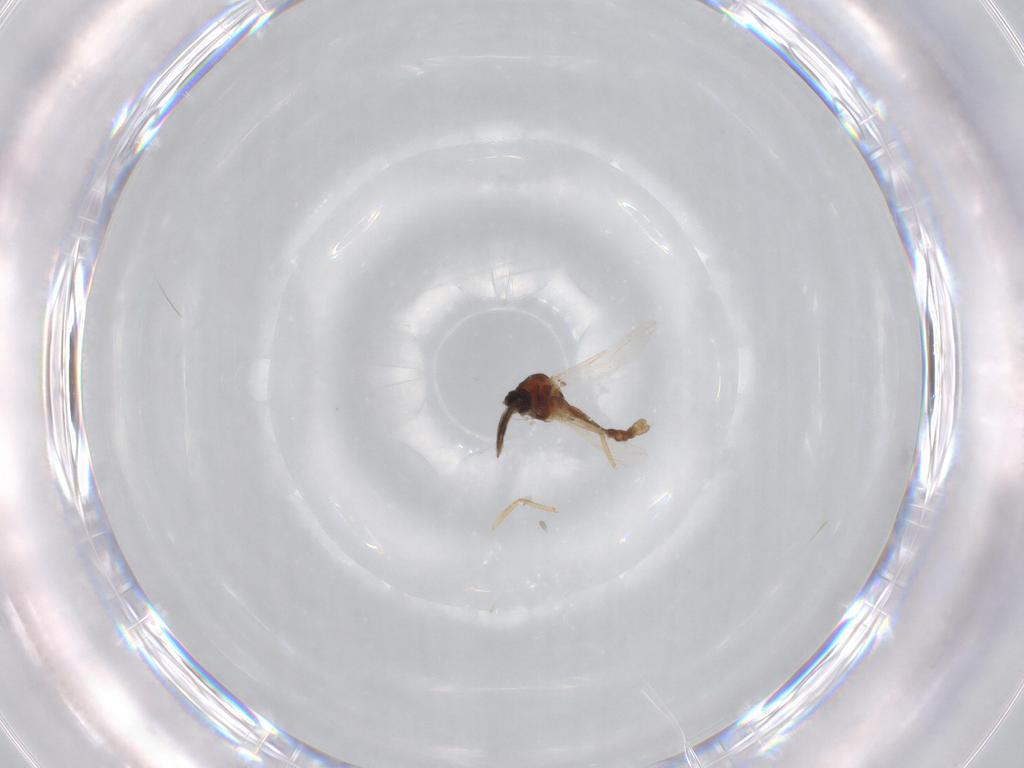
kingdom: Animalia
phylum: Arthropoda
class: Insecta
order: Diptera
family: Ceratopogonidae
